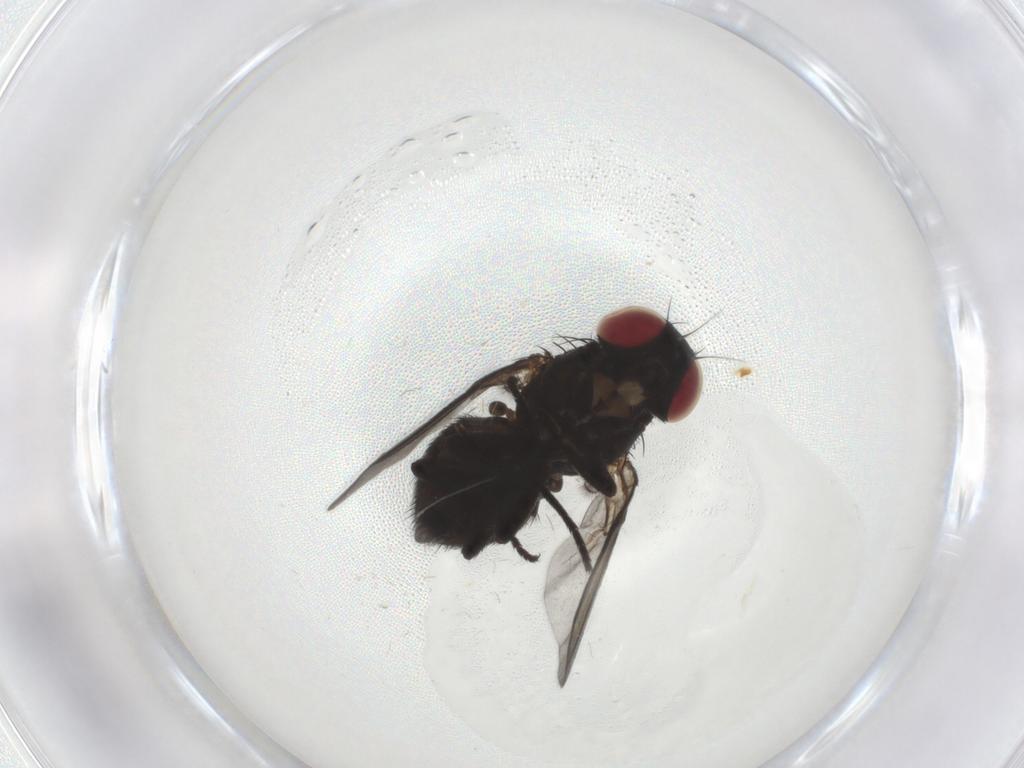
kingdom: Animalia
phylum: Arthropoda
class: Insecta
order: Diptera
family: Agromyzidae
